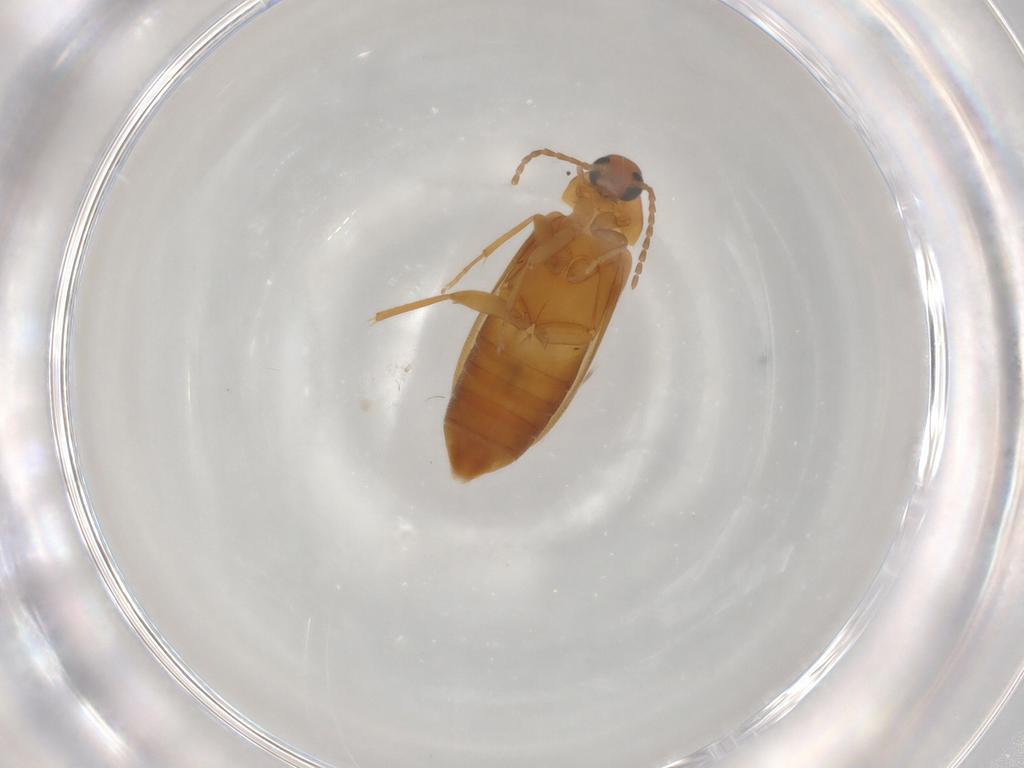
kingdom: Animalia
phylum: Arthropoda
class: Insecta
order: Coleoptera
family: Scraptiidae
